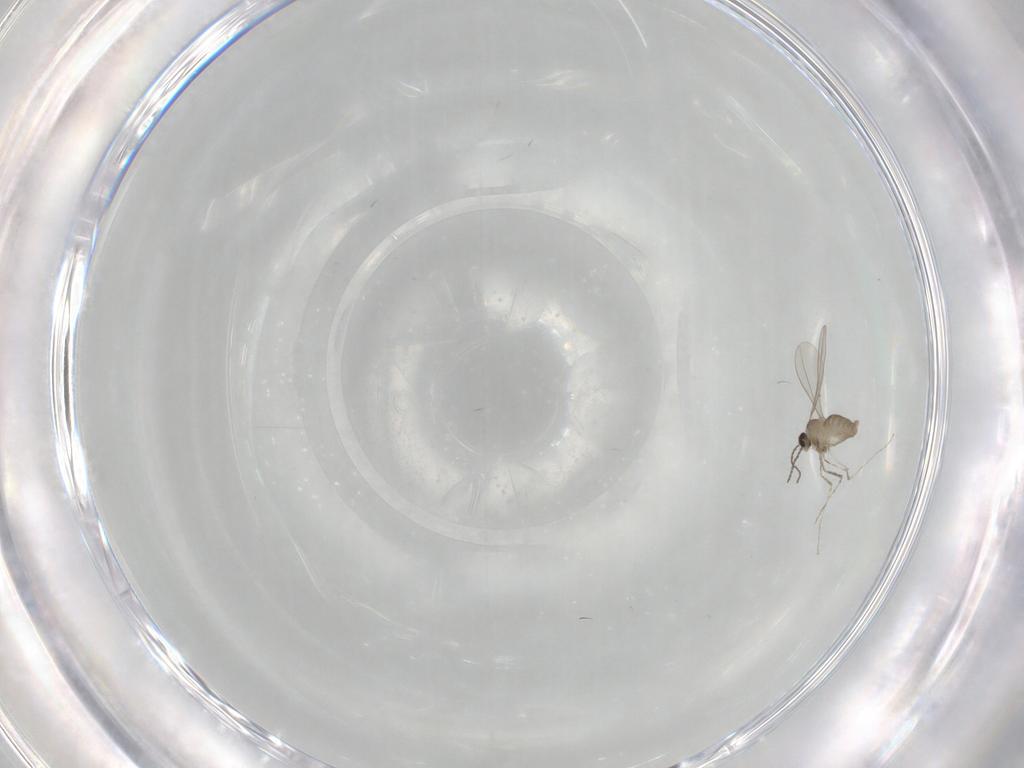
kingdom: Animalia
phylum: Arthropoda
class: Insecta
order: Diptera
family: Cecidomyiidae
